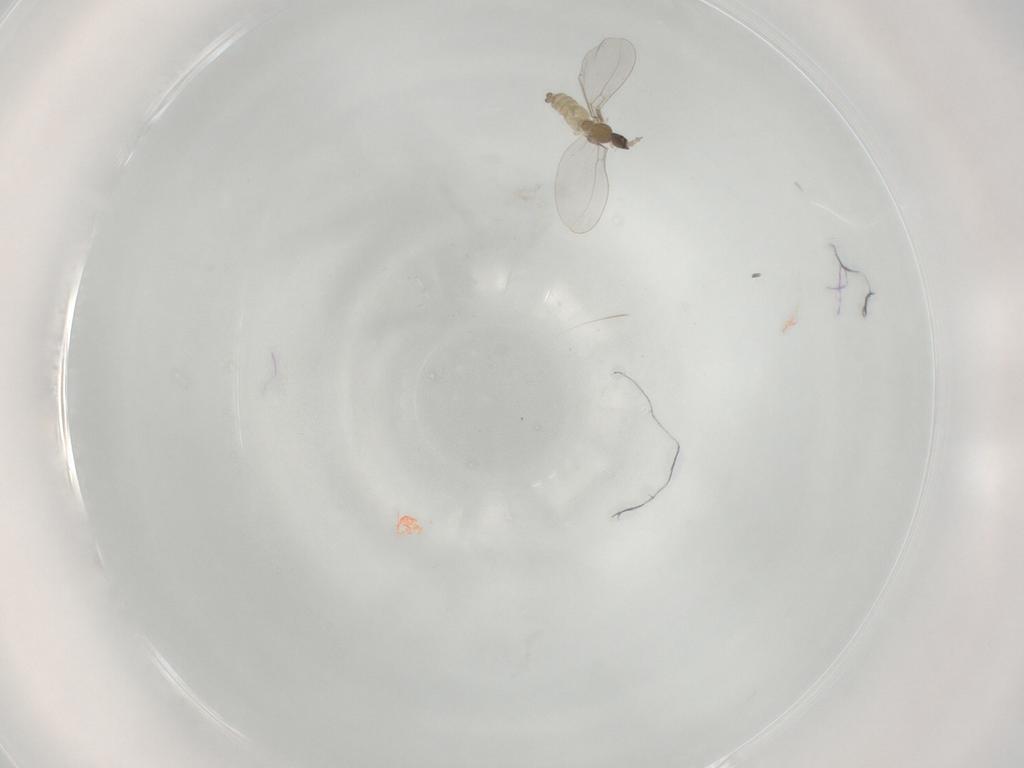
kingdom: Animalia
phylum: Arthropoda
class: Insecta
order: Diptera
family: Cecidomyiidae
